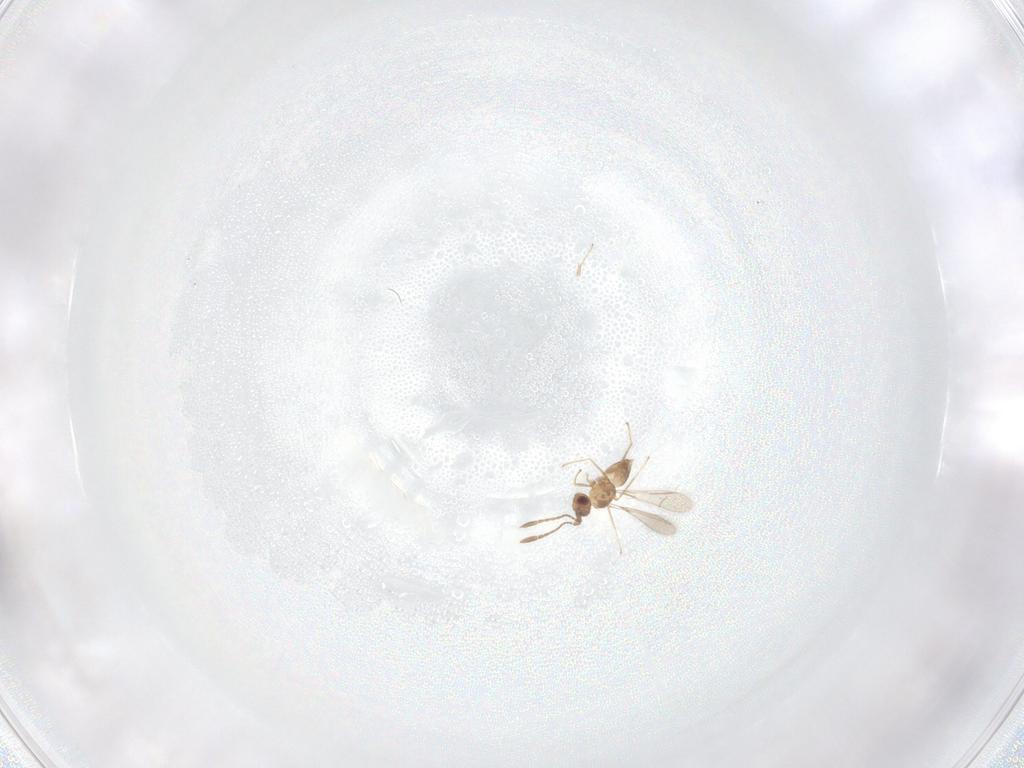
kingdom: Animalia
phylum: Arthropoda
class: Insecta
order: Hymenoptera
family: Mymaridae
